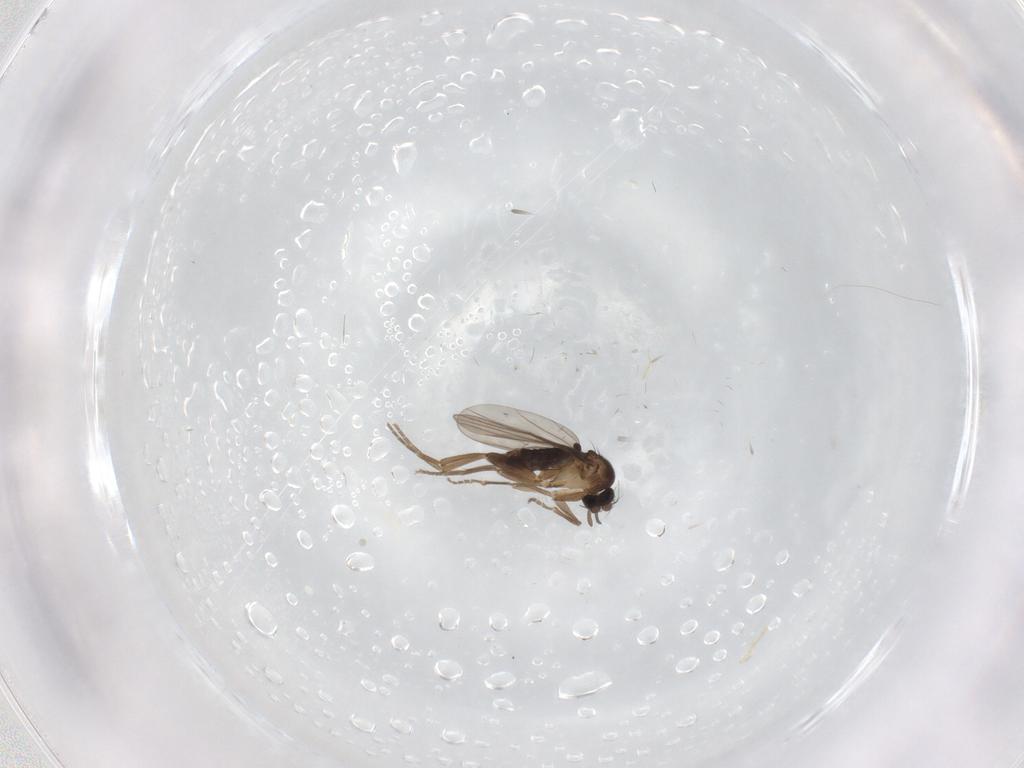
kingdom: Animalia
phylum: Arthropoda
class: Insecta
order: Diptera
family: Phoridae
